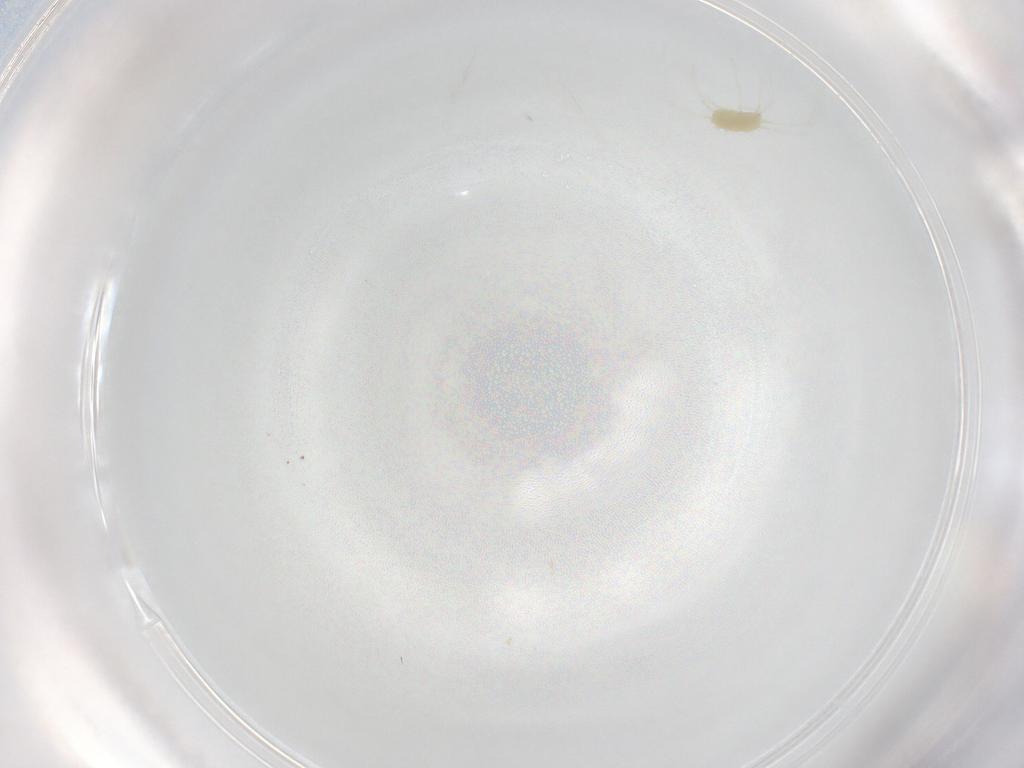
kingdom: Animalia
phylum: Arthropoda
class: Arachnida
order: Trombidiformes
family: Tetranychidae
